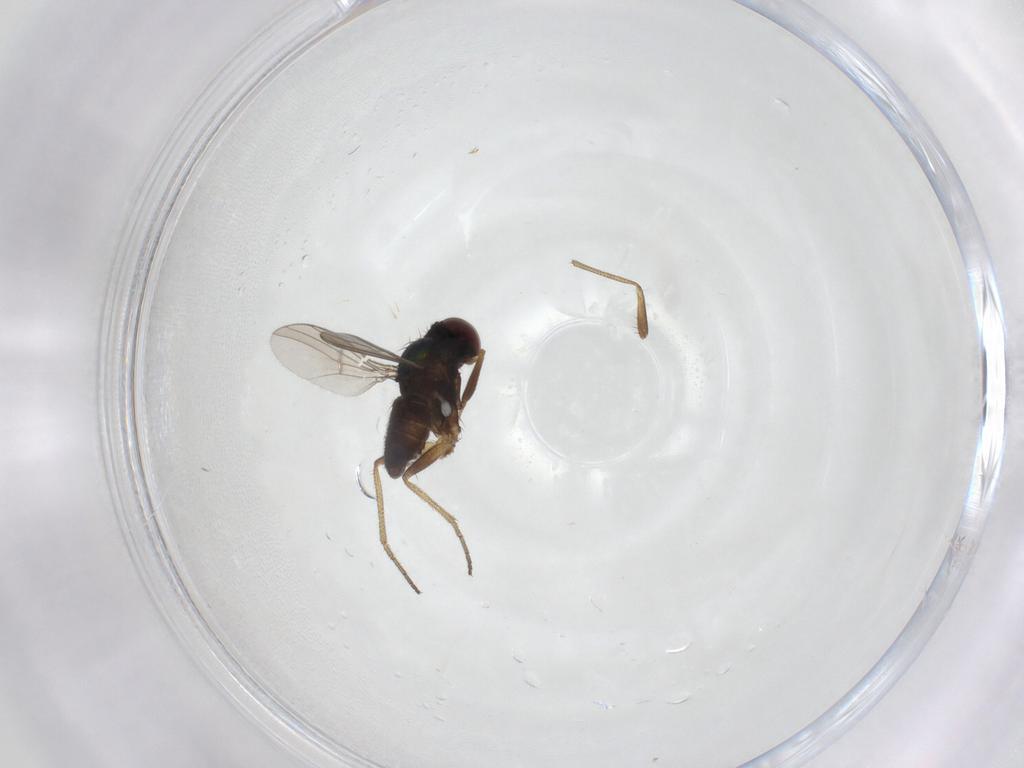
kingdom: Animalia
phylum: Arthropoda
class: Insecta
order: Diptera
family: Dolichopodidae
